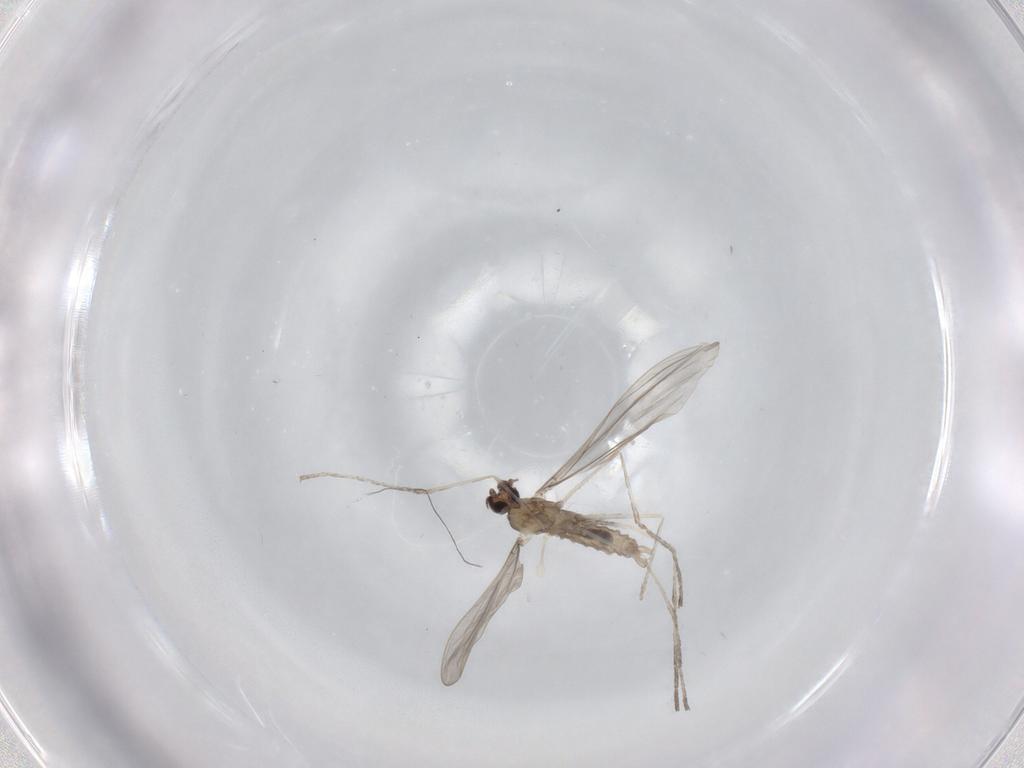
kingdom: Animalia
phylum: Arthropoda
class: Insecta
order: Diptera
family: Cecidomyiidae
